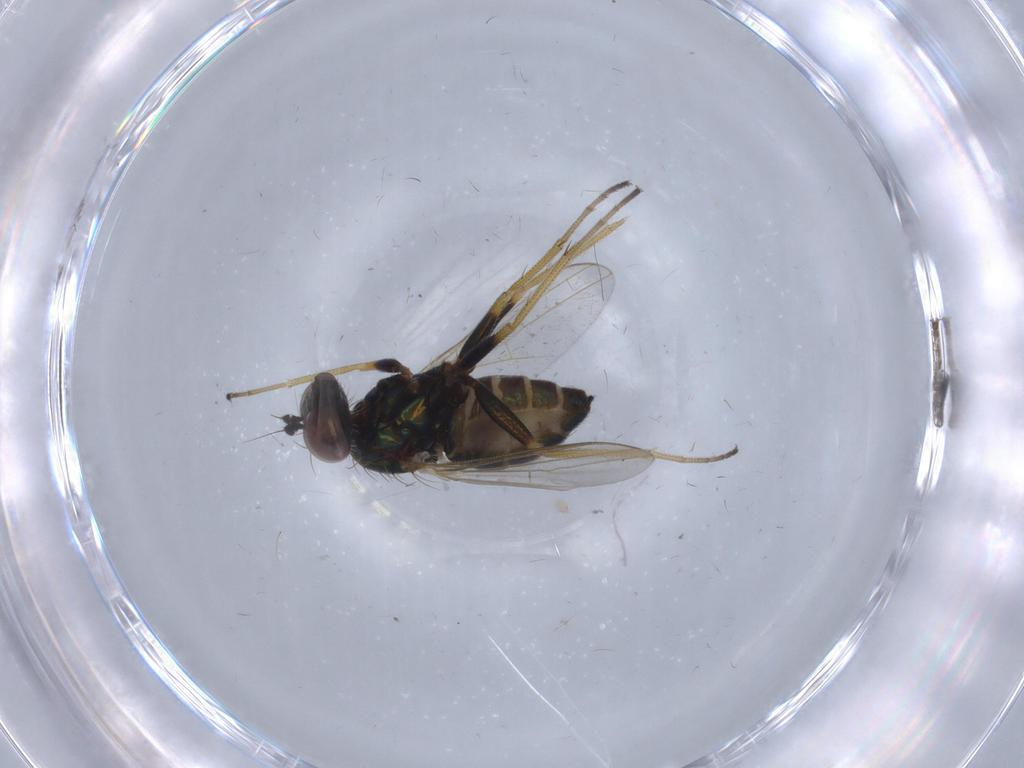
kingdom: Animalia
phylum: Arthropoda
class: Insecta
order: Diptera
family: Dolichopodidae
